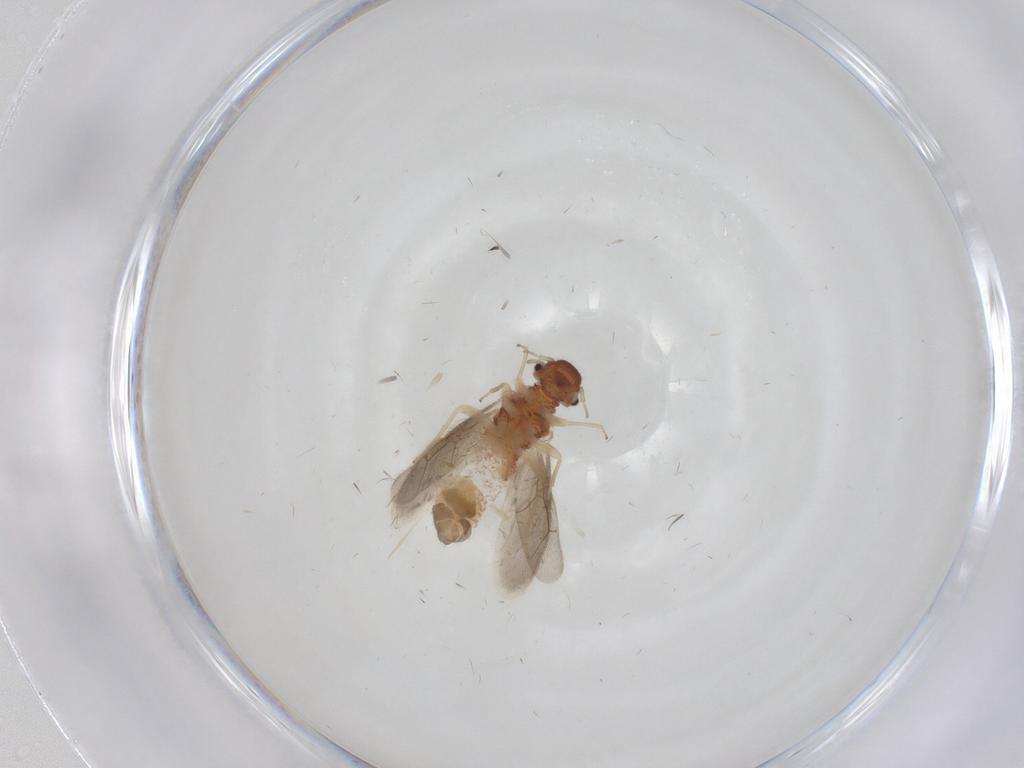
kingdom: Animalia
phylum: Arthropoda
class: Insecta
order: Psocodea
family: Archipsocidae
